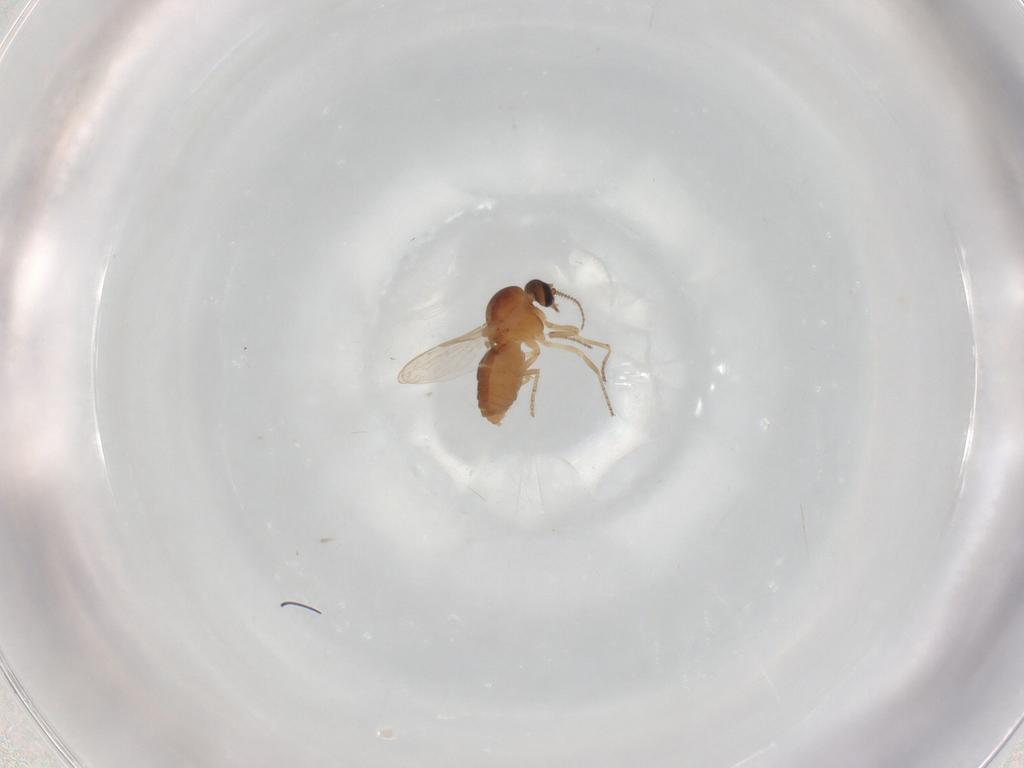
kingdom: Animalia
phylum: Arthropoda
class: Insecta
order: Diptera
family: Ceratopogonidae
